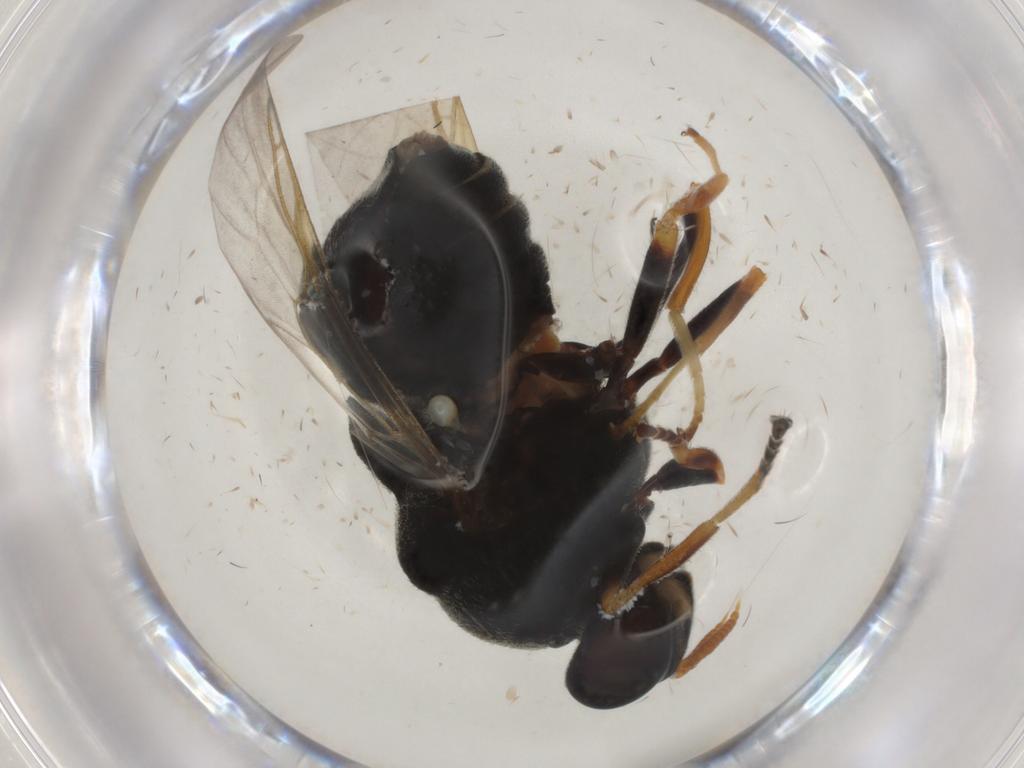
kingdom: Animalia
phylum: Arthropoda
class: Insecta
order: Diptera
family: Stratiomyidae
